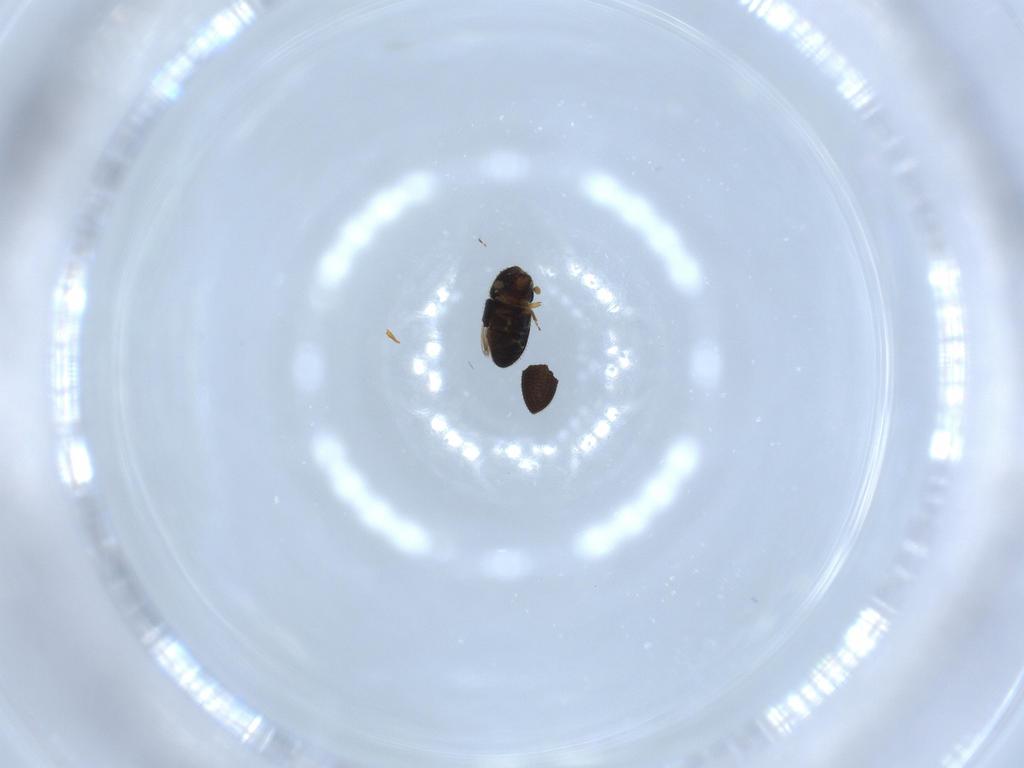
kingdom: Animalia
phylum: Arthropoda
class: Insecta
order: Coleoptera
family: Curculionidae
